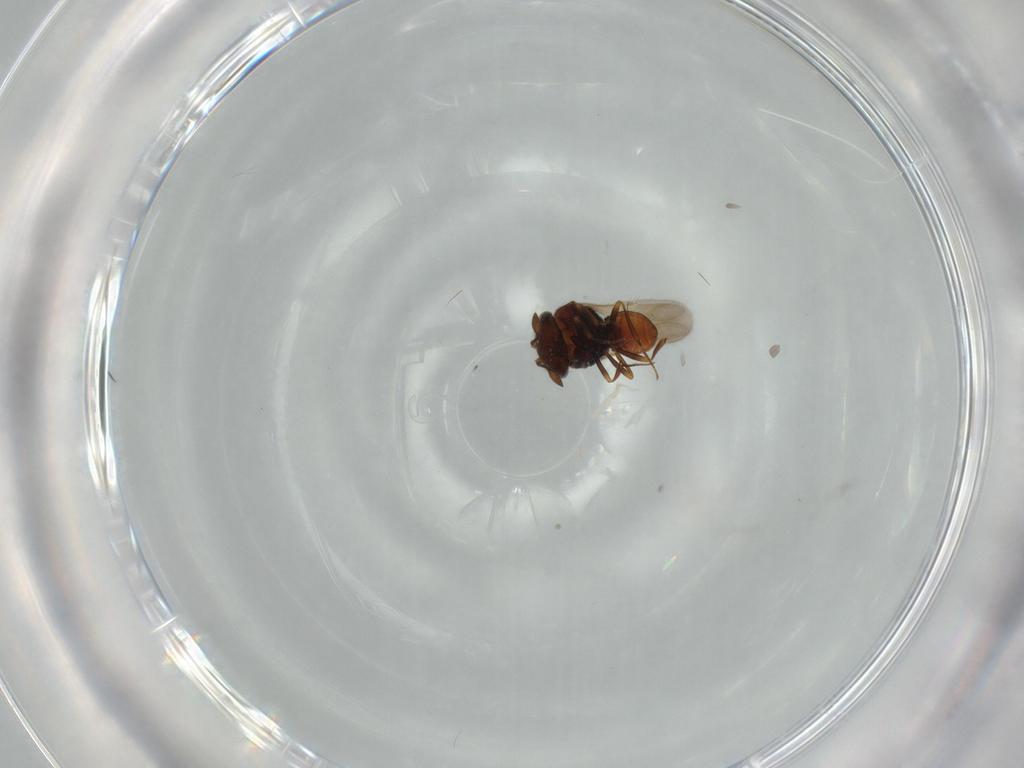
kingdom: Animalia
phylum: Arthropoda
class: Insecta
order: Hymenoptera
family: Scelionidae
